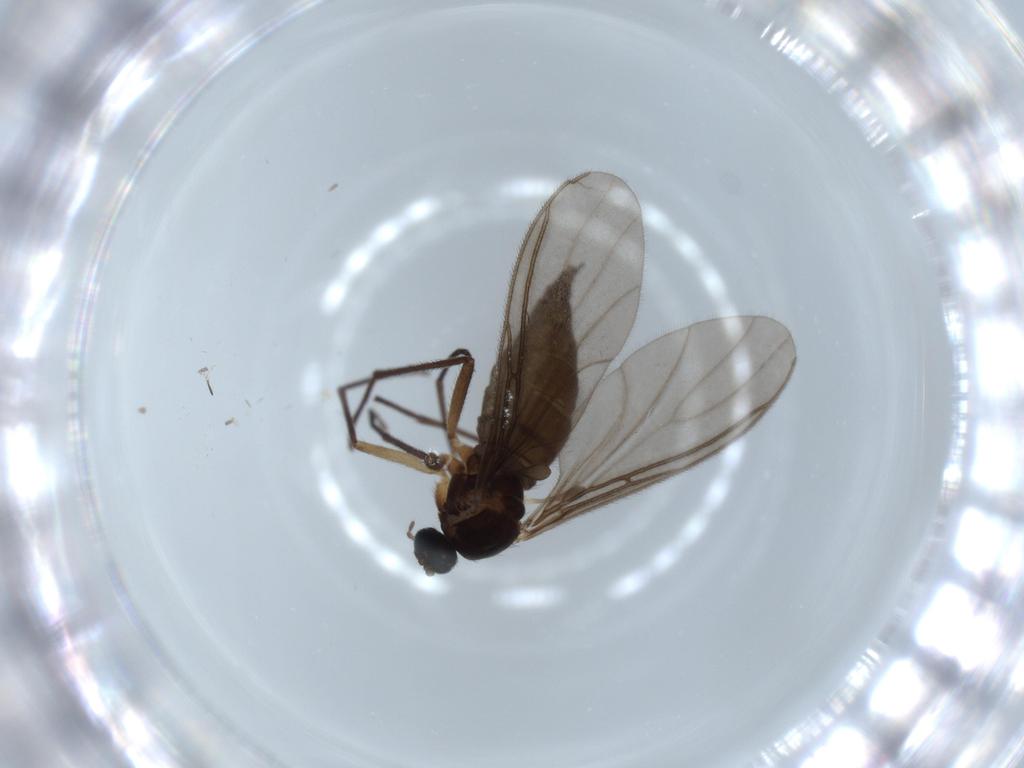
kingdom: Animalia
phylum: Arthropoda
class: Insecta
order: Diptera
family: Sciaridae
